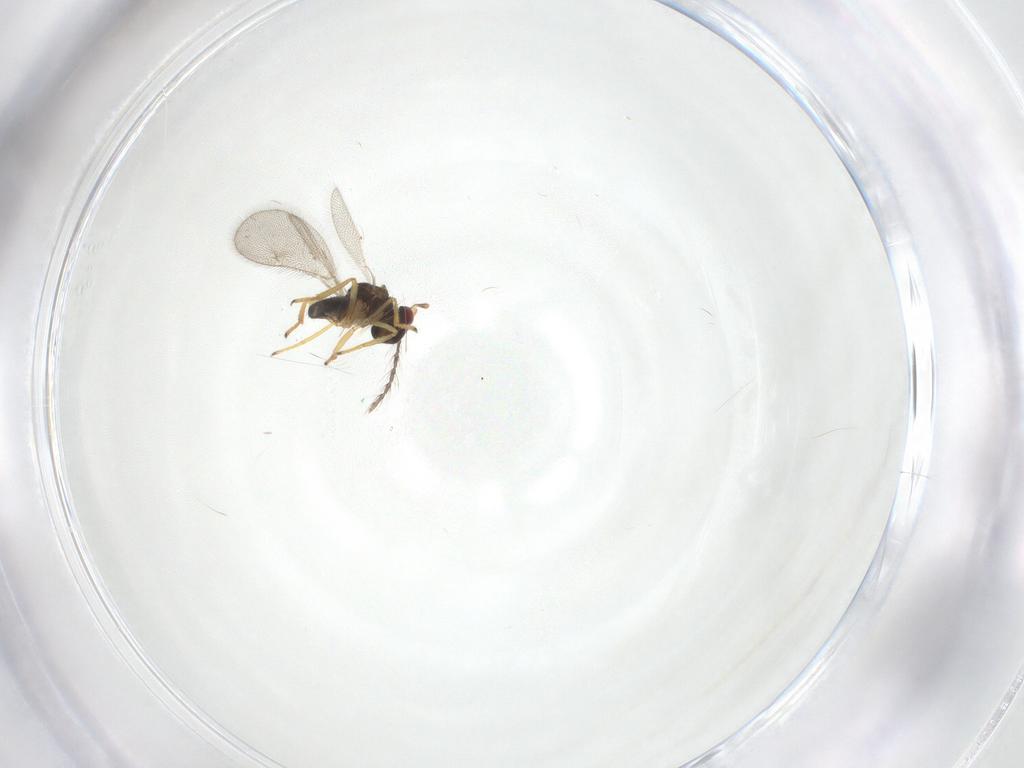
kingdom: Animalia
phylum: Arthropoda
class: Insecta
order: Hymenoptera
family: Eulophidae
